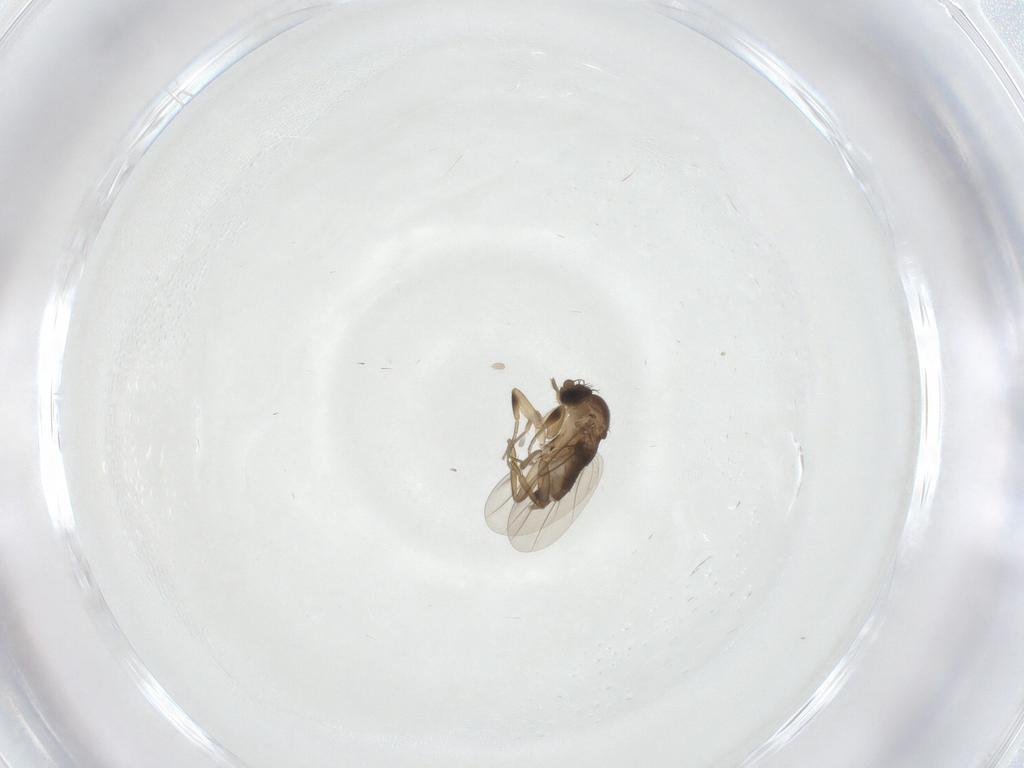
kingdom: Animalia
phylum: Arthropoda
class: Insecta
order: Diptera
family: Phoridae
